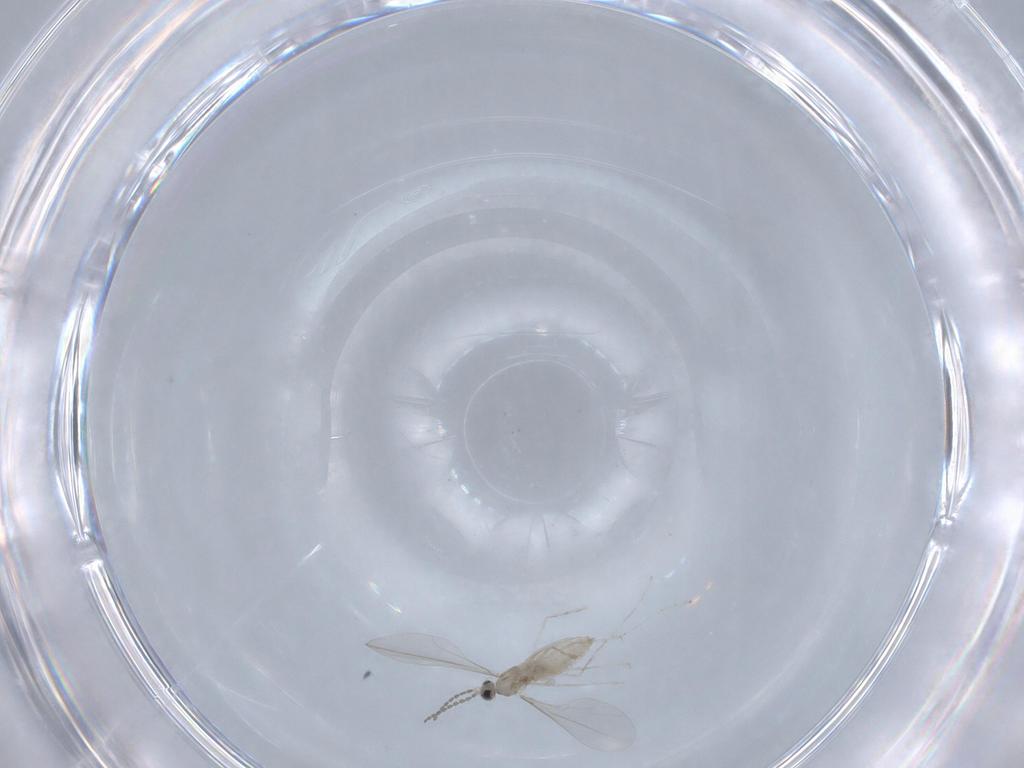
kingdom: Animalia
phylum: Arthropoda
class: Insecta
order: Diptera
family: Cecidomyiidae
